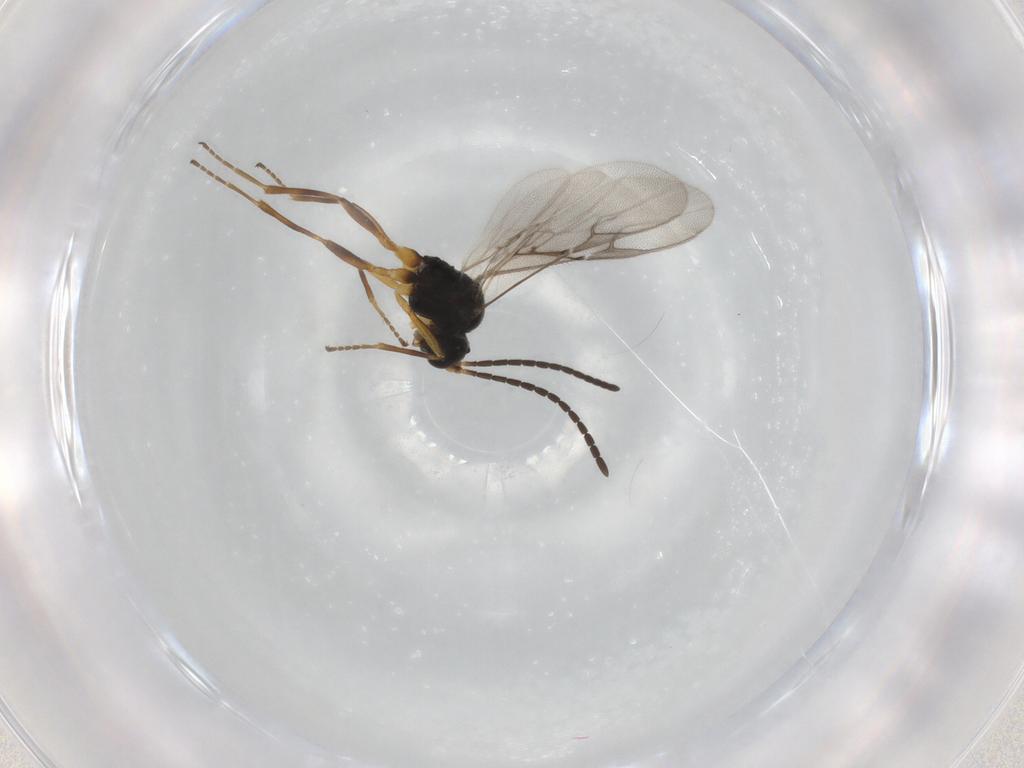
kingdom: Animalia
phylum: Arthropoda
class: Insecta
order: Hymenoptera
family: Braconidae
